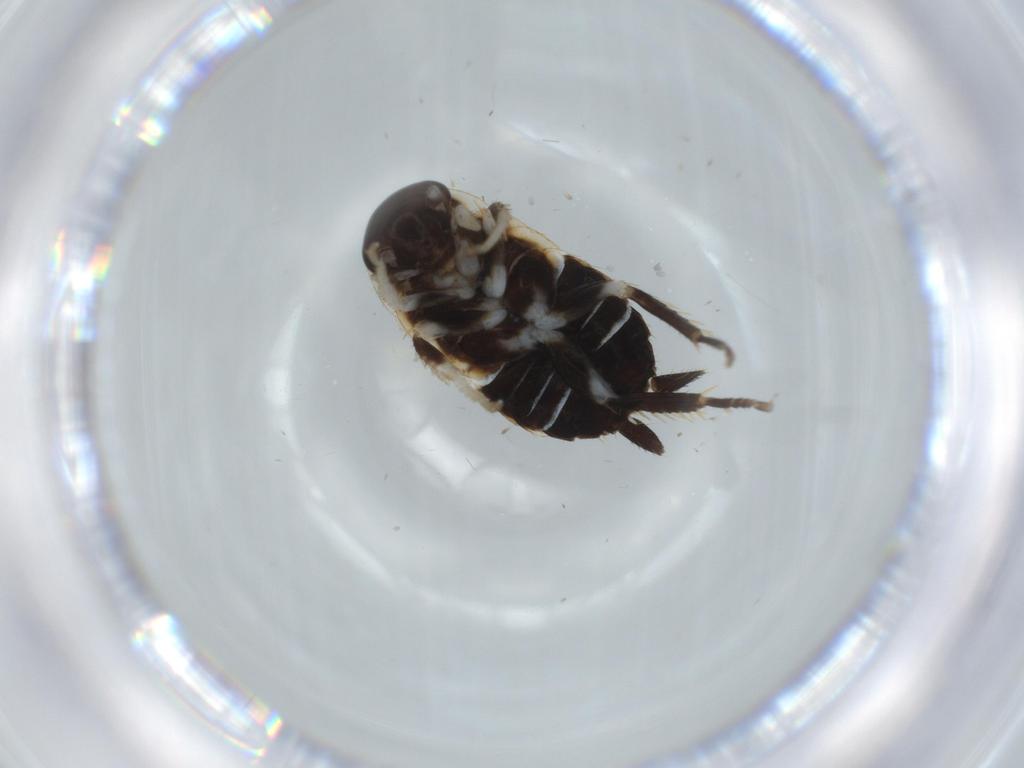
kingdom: Animalia
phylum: Arthropoda
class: Insecta
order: Blattodea
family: Ectobiidae
